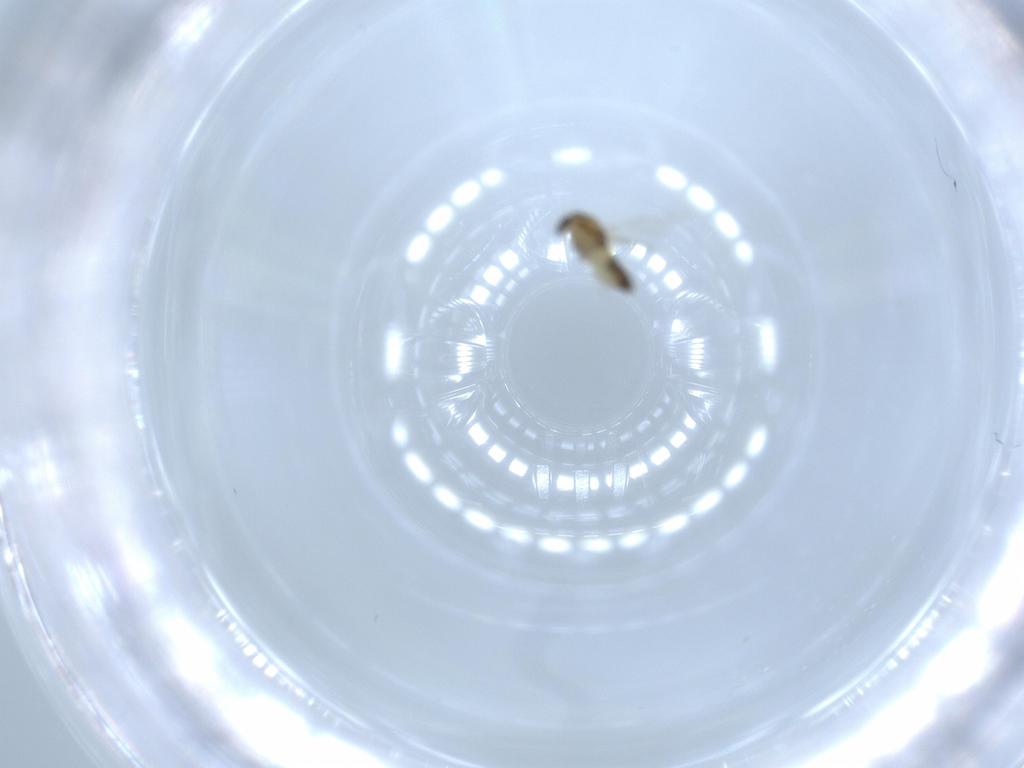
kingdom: Animalia
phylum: Arthropoda
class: Insecta
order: Diptera
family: Chironomidae
